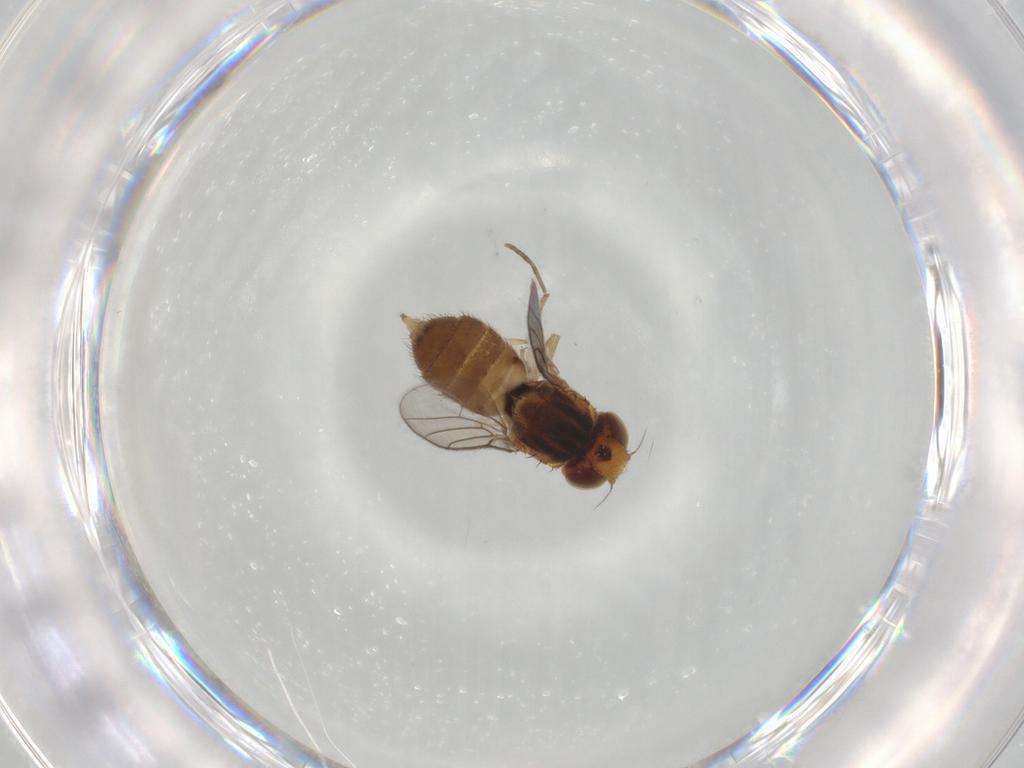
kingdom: Animalia
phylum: Arthropoda
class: Insecta
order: Diptera
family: Chloropidae
